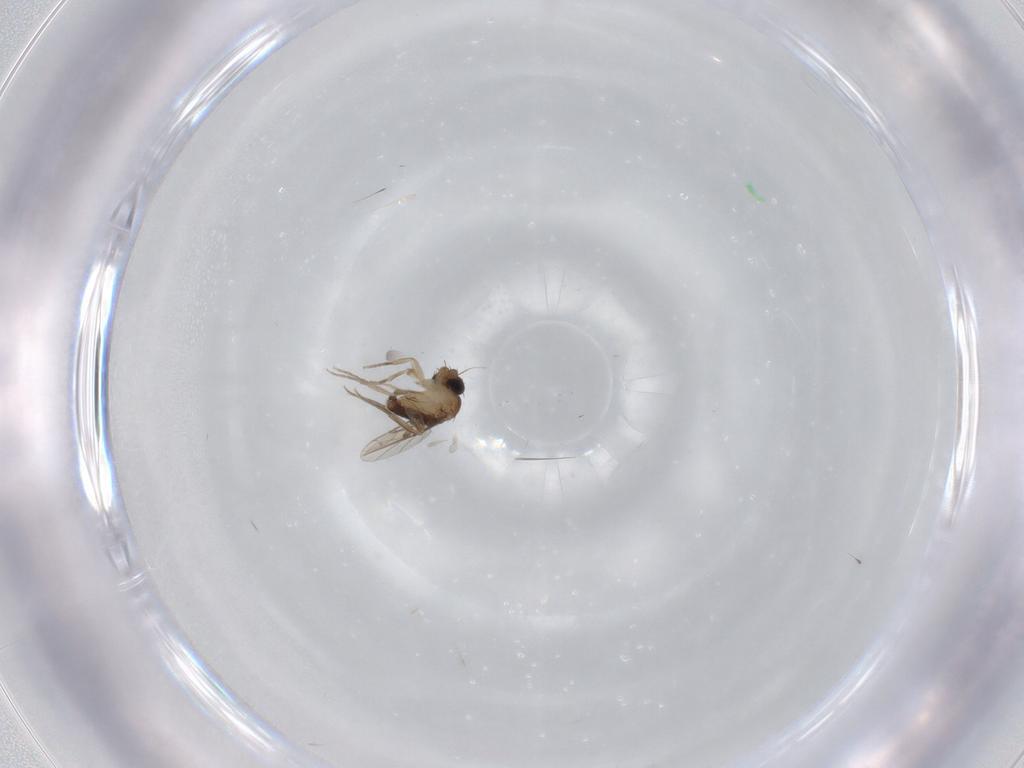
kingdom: Animalia
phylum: Arthropoda
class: Insecta
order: Diptera
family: Phoridae
